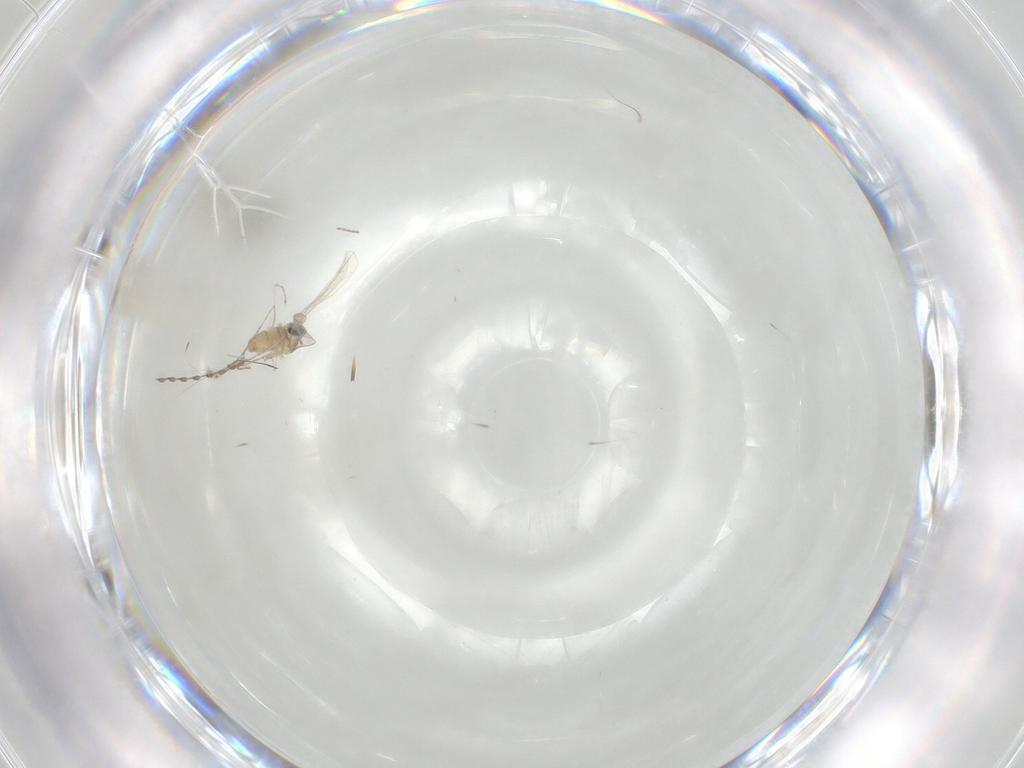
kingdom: Animalia
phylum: Arthropoda
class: Insecta
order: Diptera
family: Cecidomyiidae
